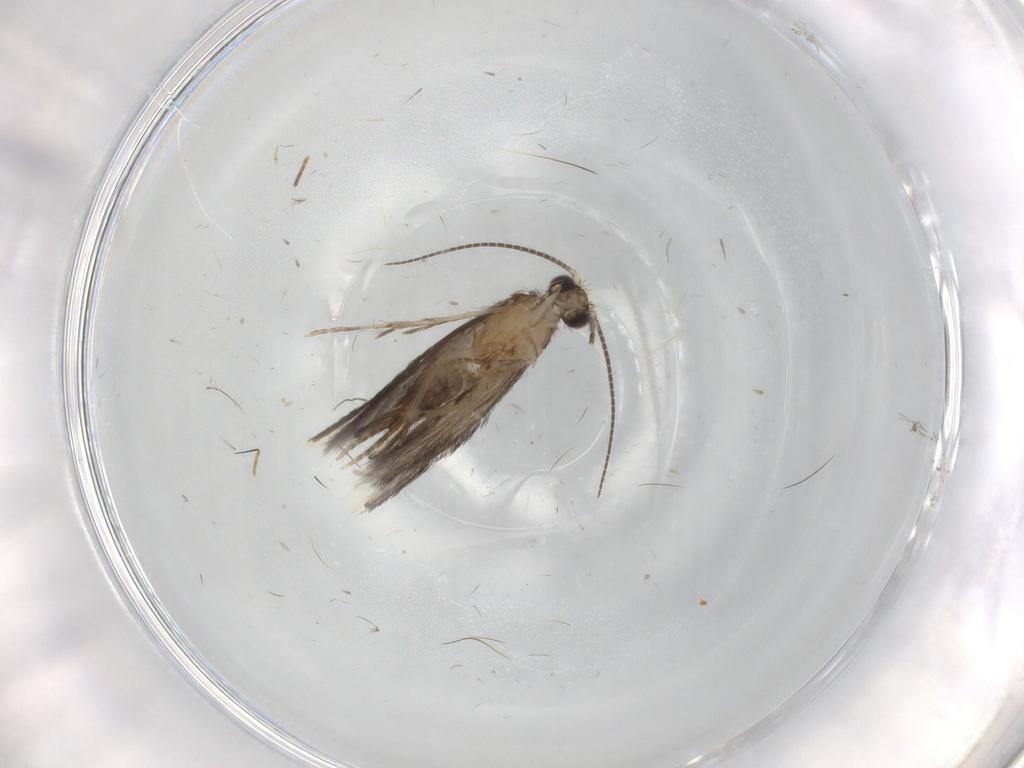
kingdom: Animalia
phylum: Arthropoda
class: Insecta
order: Trichoptera
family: Hydroptilidae
